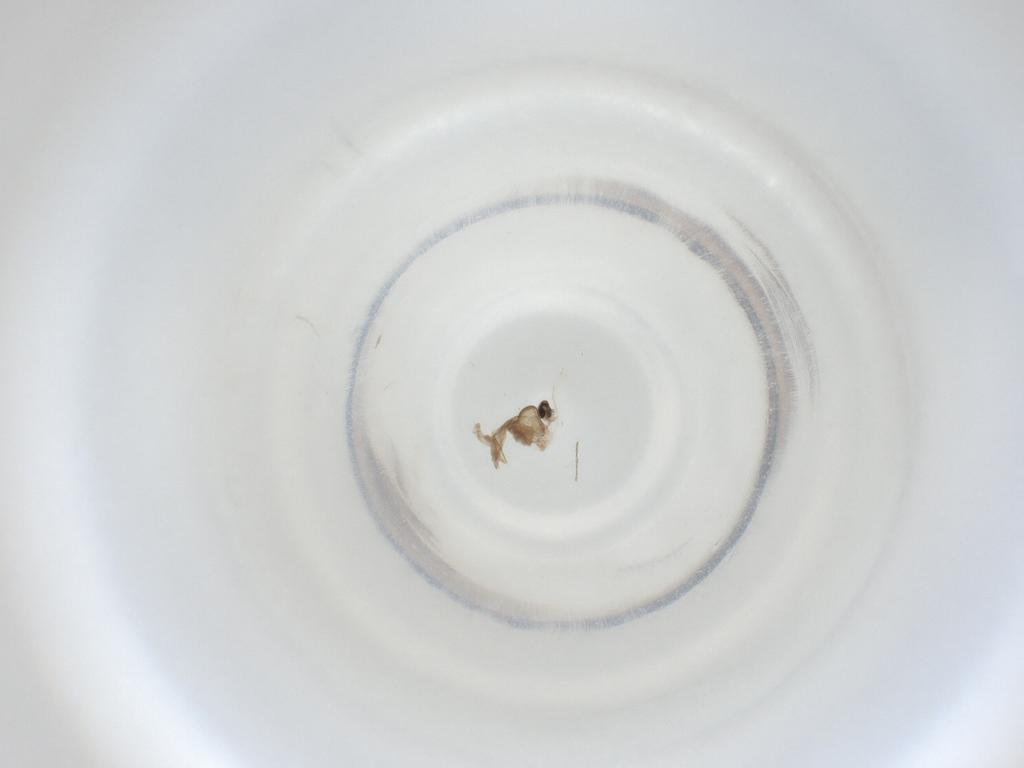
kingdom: Animalia
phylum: Arthropoda
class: Insecta
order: Diptera
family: Cecidomyiidae
